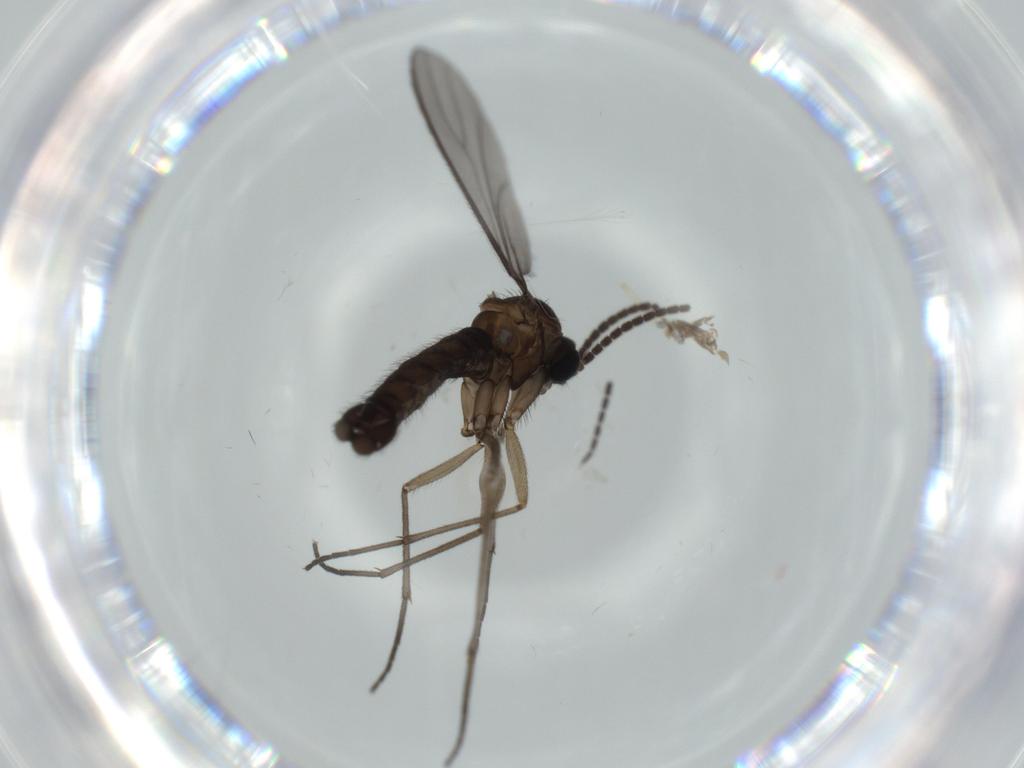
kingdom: Animalia
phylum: Arthropoda
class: Insecta
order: Diptera
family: Sciaridae
